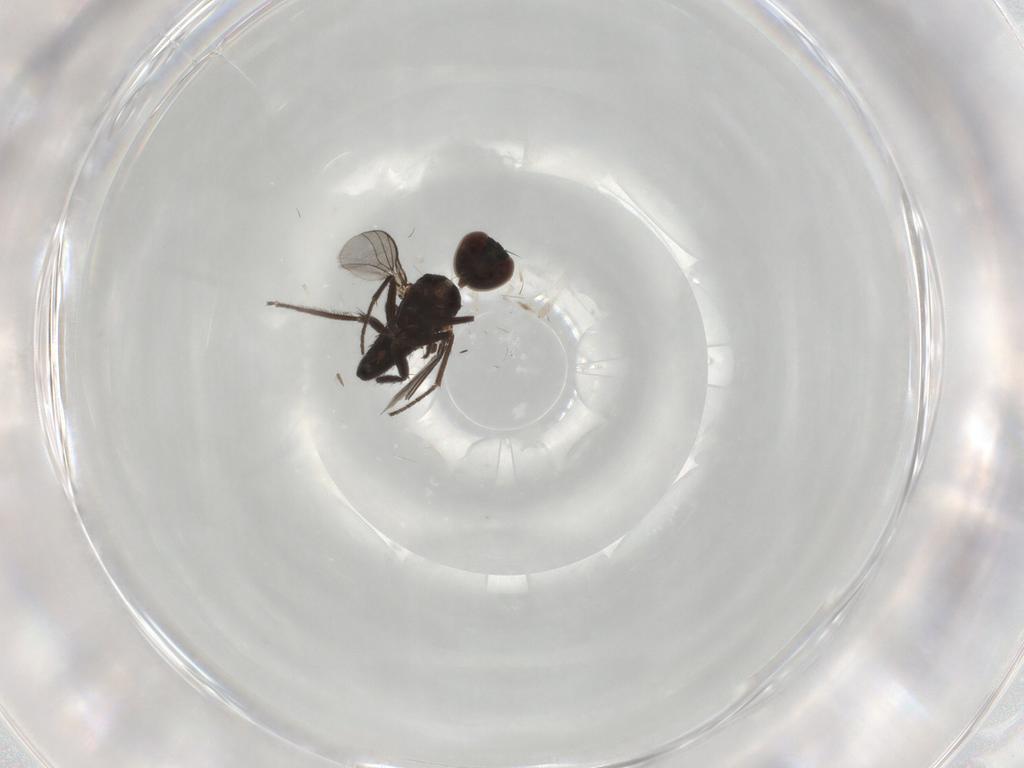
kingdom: Animalia
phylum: Arthropoda
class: Insecta
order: Diptera
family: Dolichopodidae
